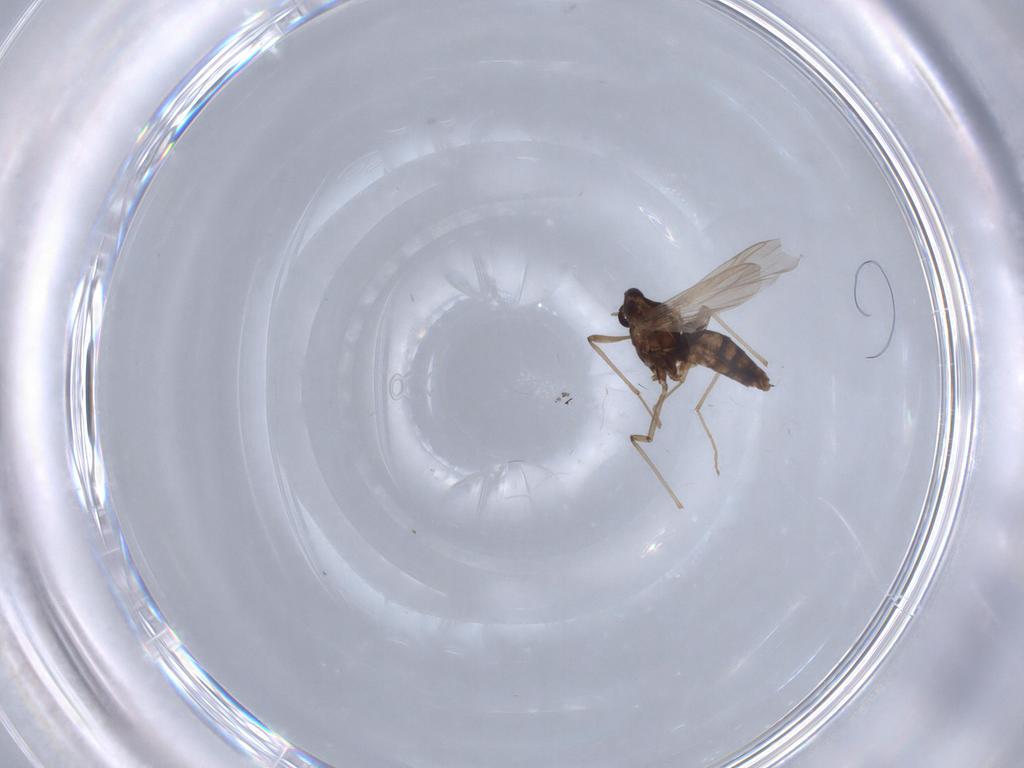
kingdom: Animalia
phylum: Arthropoda
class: Insecta
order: Diptera
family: Chironomidae
